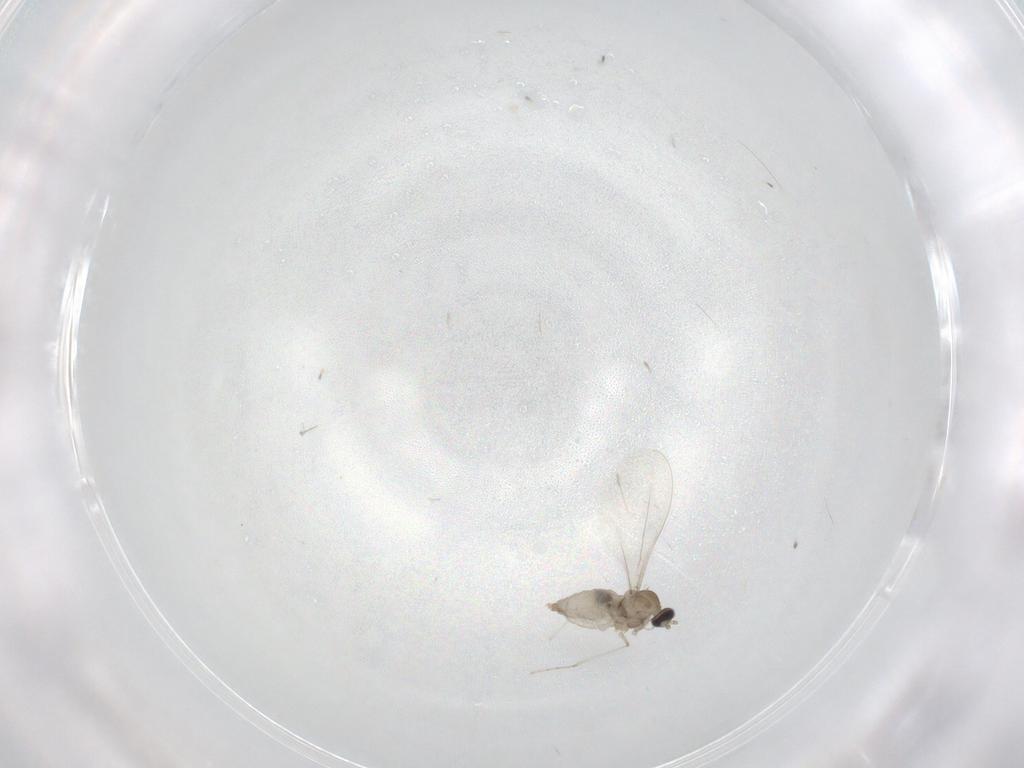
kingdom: Animalia
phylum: Arthropoda
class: Insecta
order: Diptera
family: Cecidomyiidae
